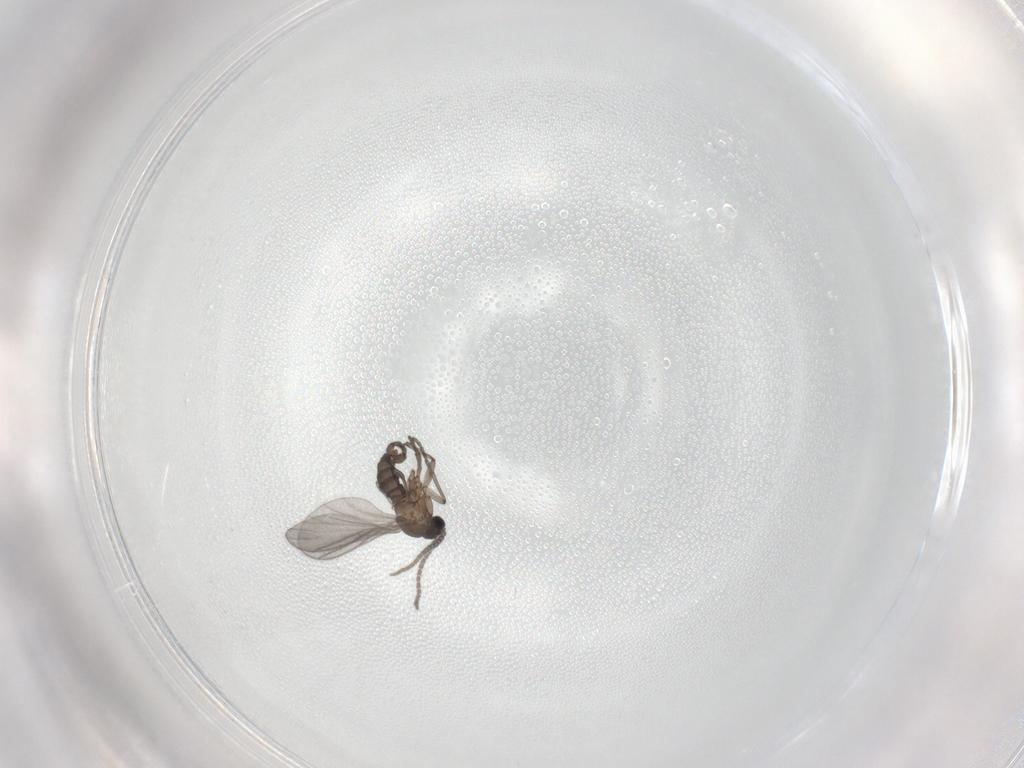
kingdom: Animalia
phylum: Arthropoda
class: Insecta
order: Diptera
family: Sciaridae
